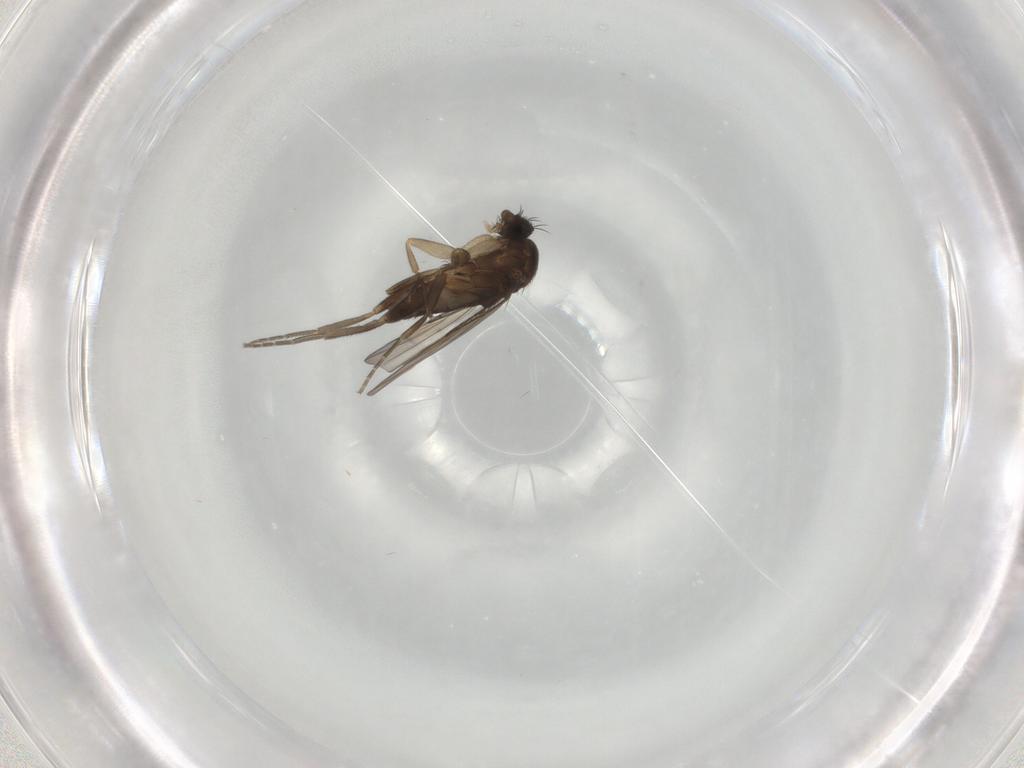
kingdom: Animalia
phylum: Arthropoda
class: Insecta
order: Diptera
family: Phoridae
